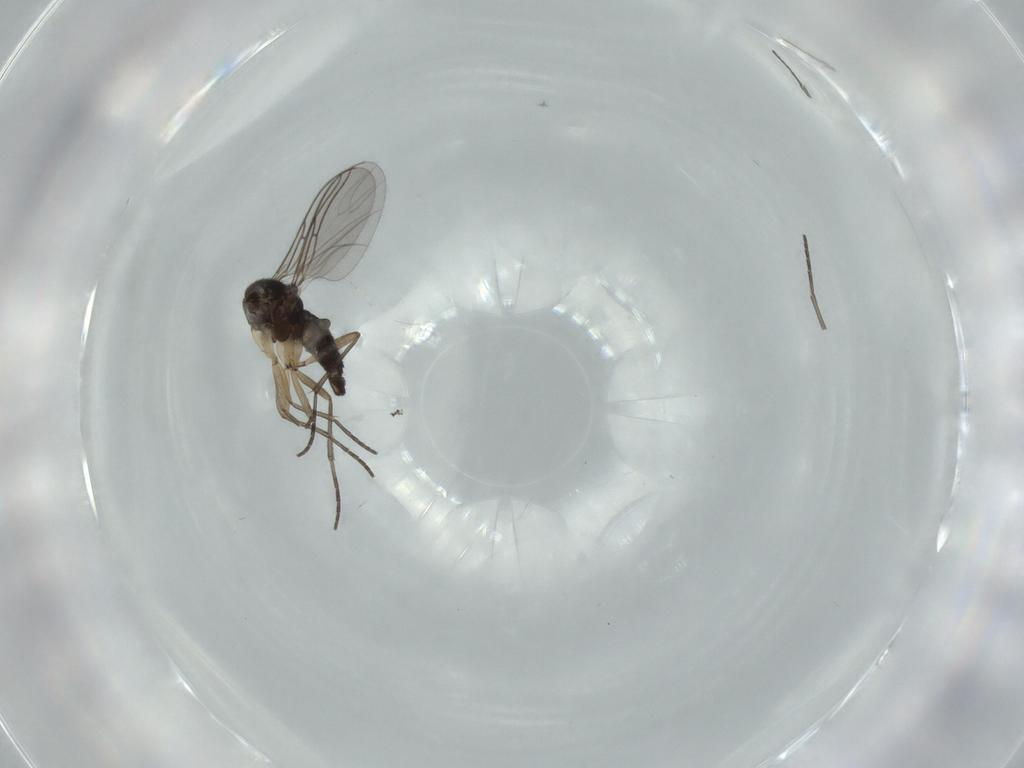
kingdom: Animalia
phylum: Arthropoda
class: Insecta
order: Diptera
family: Sciaridae
